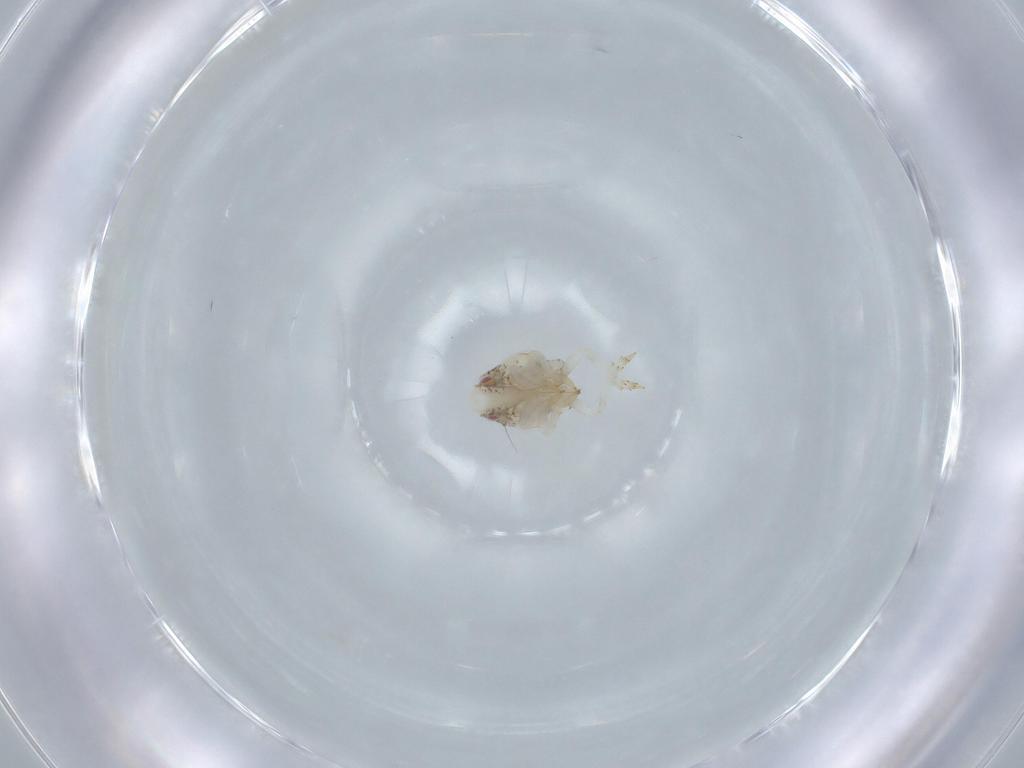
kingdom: Animalia
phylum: Arthropoda
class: Insecta
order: Hemiptera
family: Acanaloniidae
